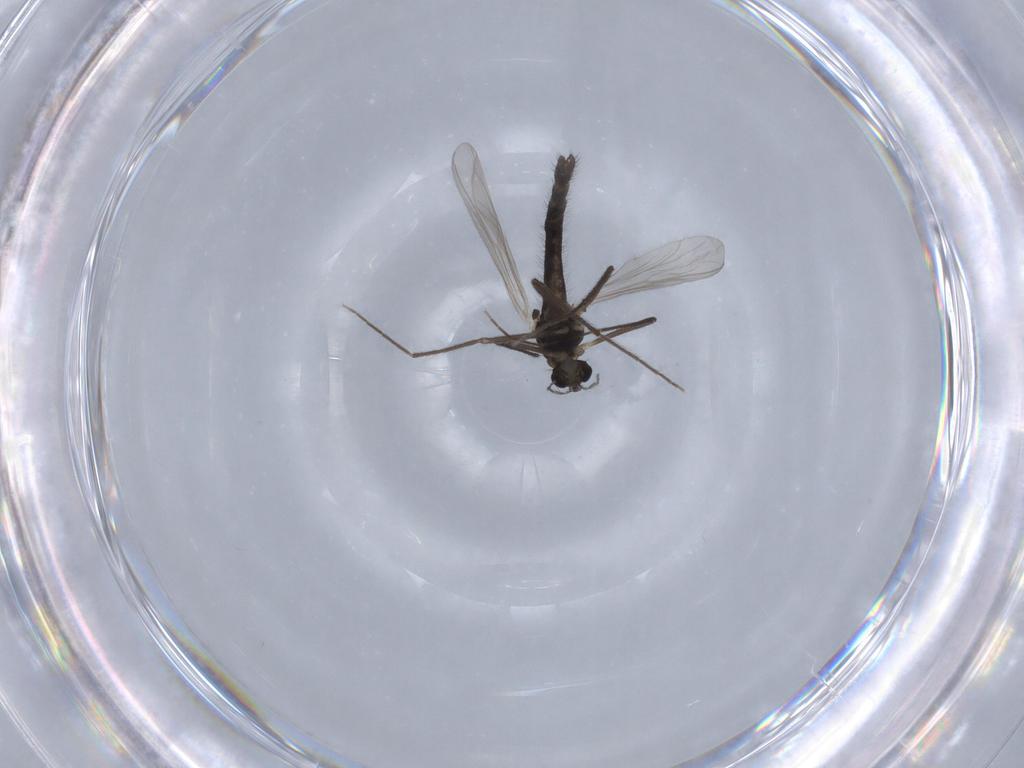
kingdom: Animalia
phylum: Arthropoda
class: Insecta
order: Diptera
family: Chironomidae
